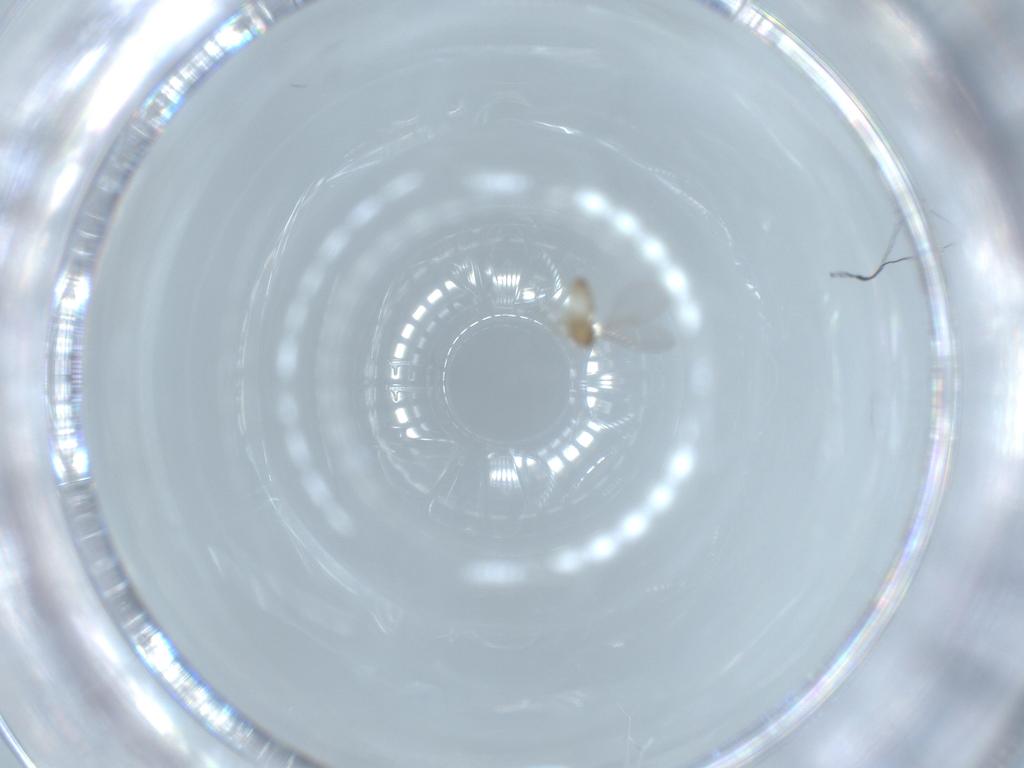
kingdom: Animalia
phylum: Arthropoda
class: Insecta
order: Diptera
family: Cecidomyiidae
